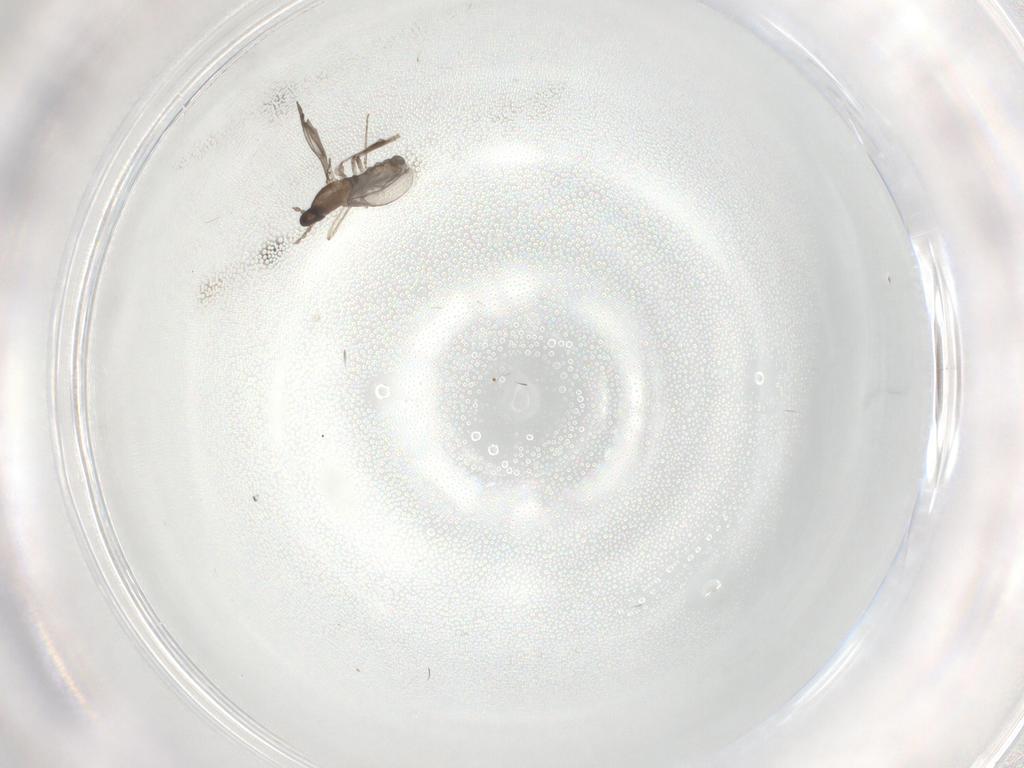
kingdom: Animalia
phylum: Arthropoda
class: Insecta
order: Diptera
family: Cecidomyiidae
